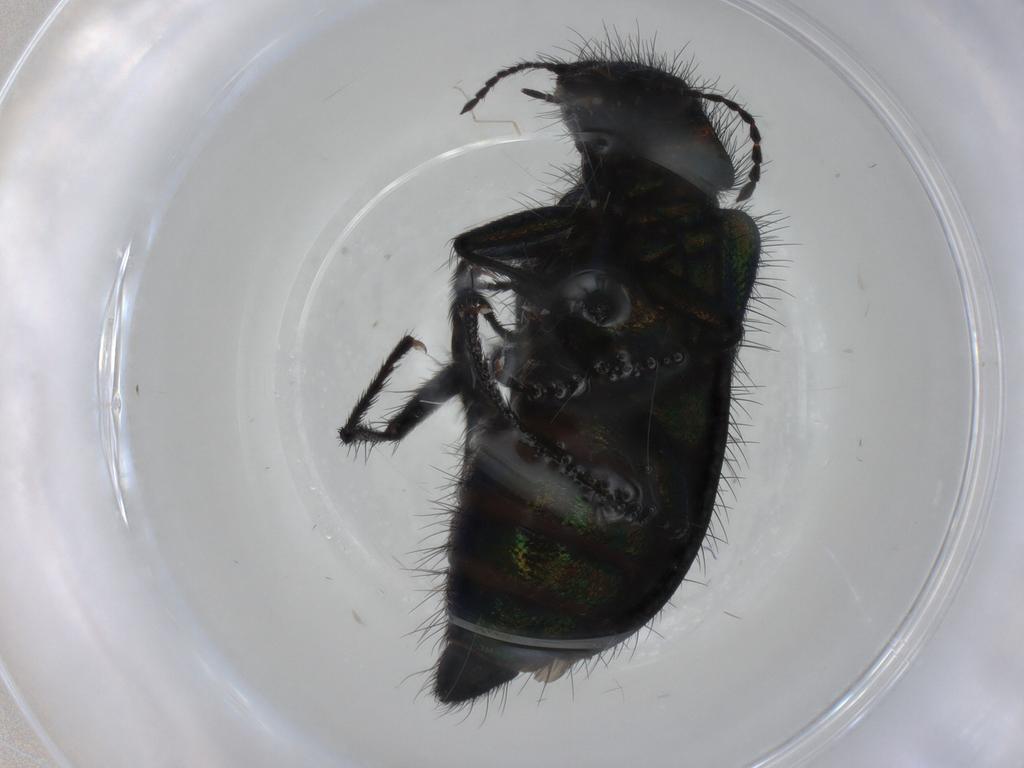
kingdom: Animalia
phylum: Arthropoda
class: Insecta
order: Coleoptera
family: Melyridae
